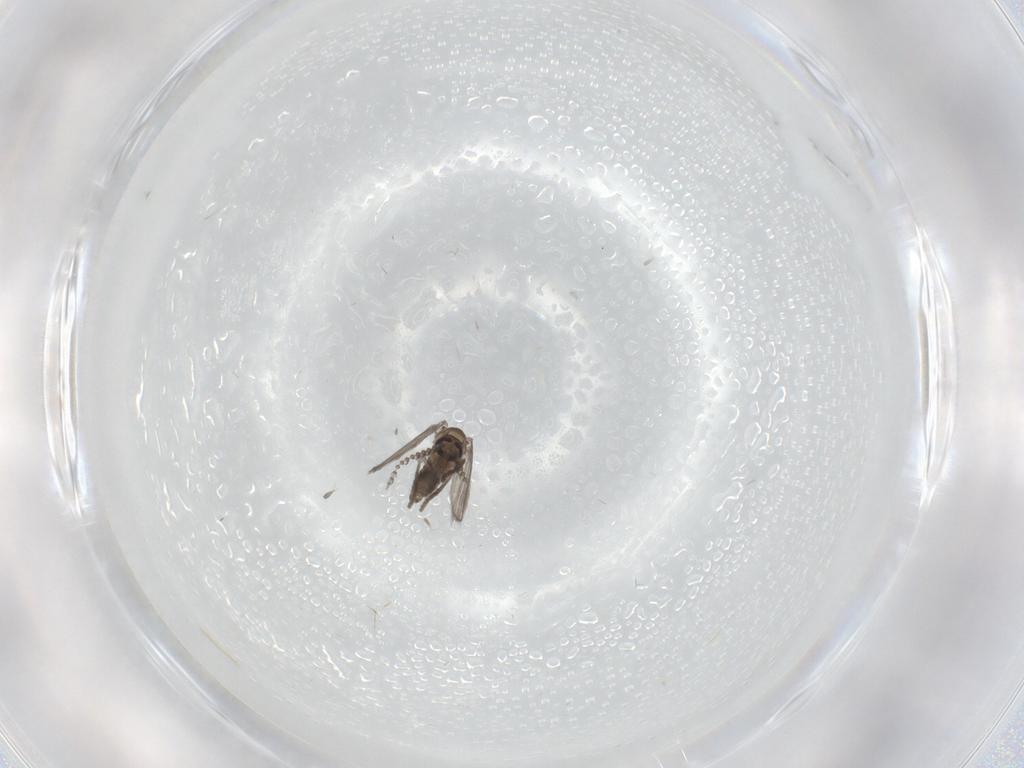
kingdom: Animalia
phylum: Arthropoda
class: Insecta
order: Diptera
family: Psychodidae
